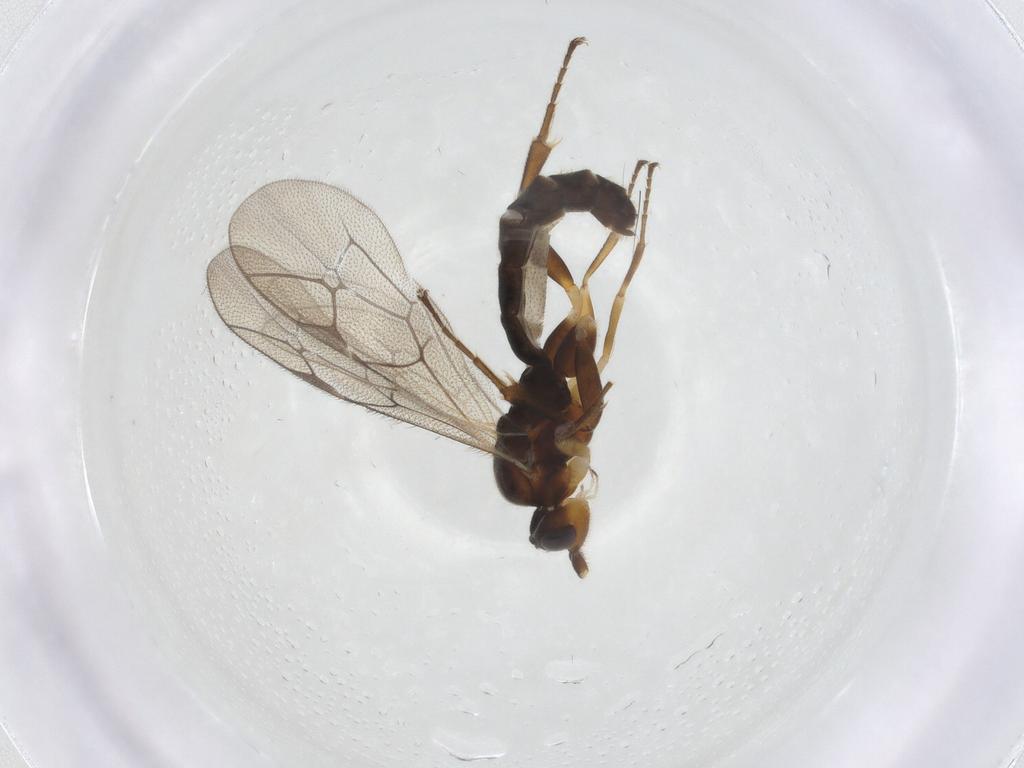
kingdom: Animalia
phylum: Arthropoda
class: Insecta
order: Hymenoptera
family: Ichneumonidae
